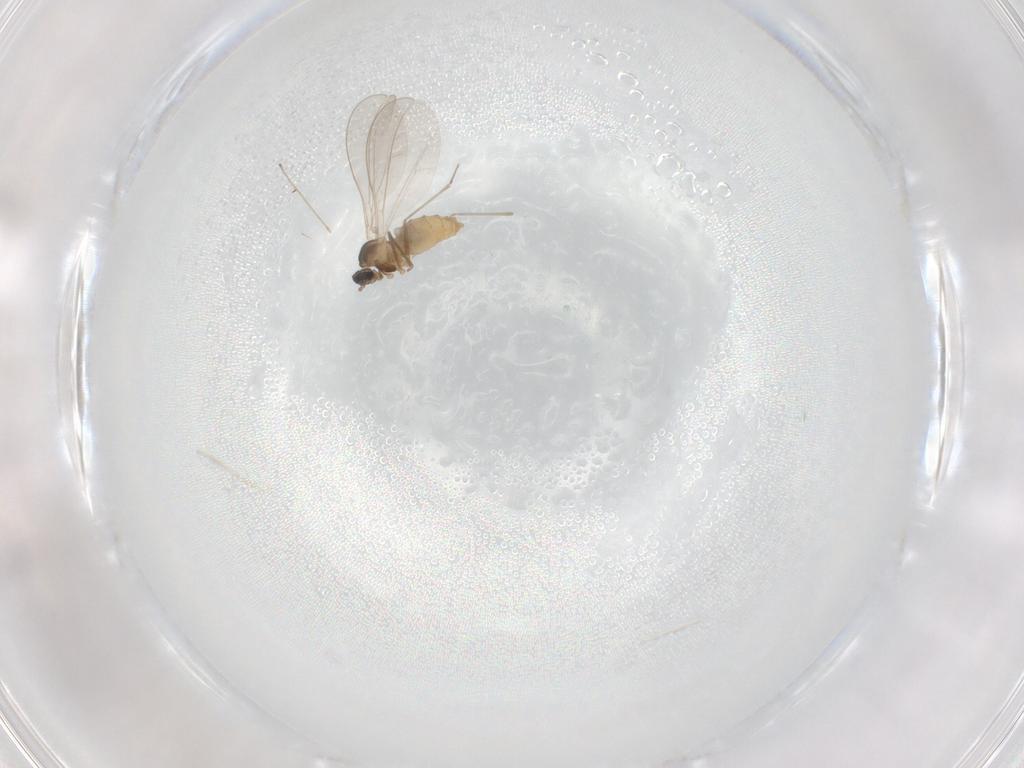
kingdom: Animalia
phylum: Arthropoda
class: Insecta
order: Diptera
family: Cecidomyiidae
